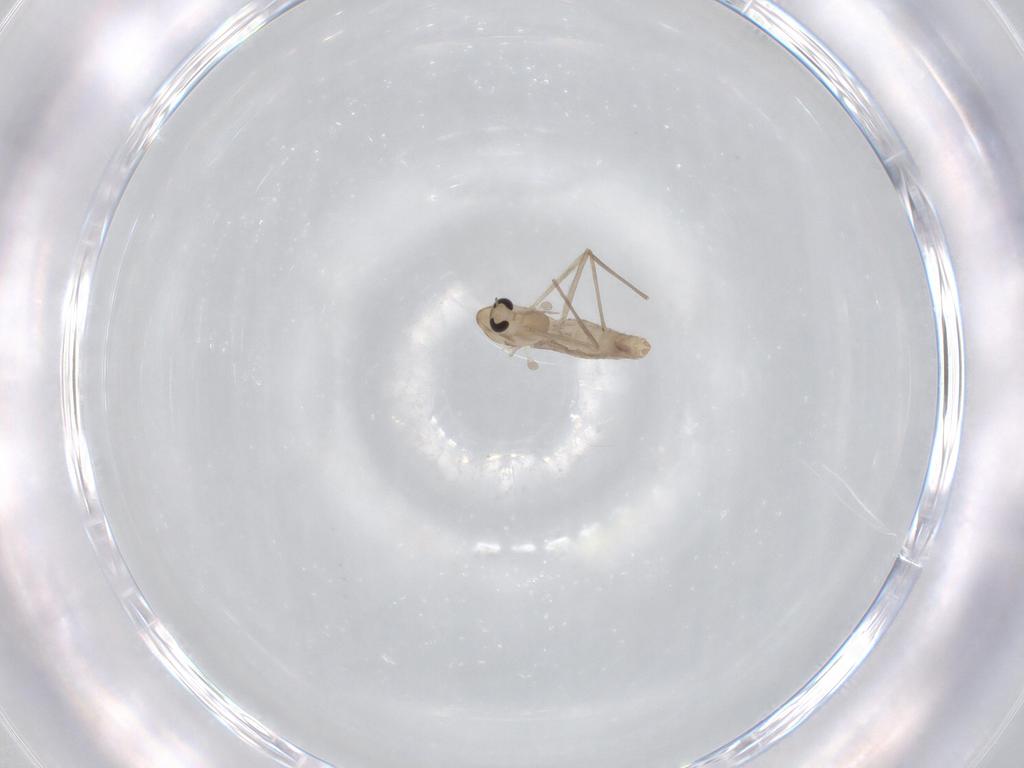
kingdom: Animalia
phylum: Arthropoda
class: Insecta
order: Diptera
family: Chironomidae
